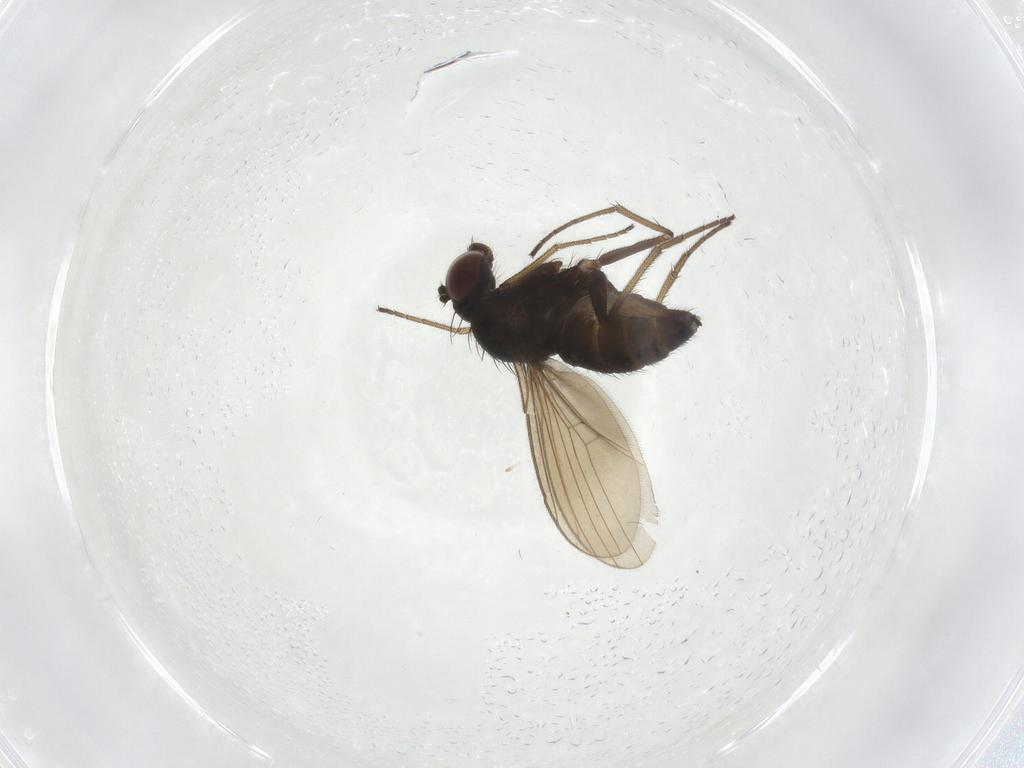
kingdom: Animalia
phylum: Arthropoda
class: Insecta
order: Diptera
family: Dolichopodidae
